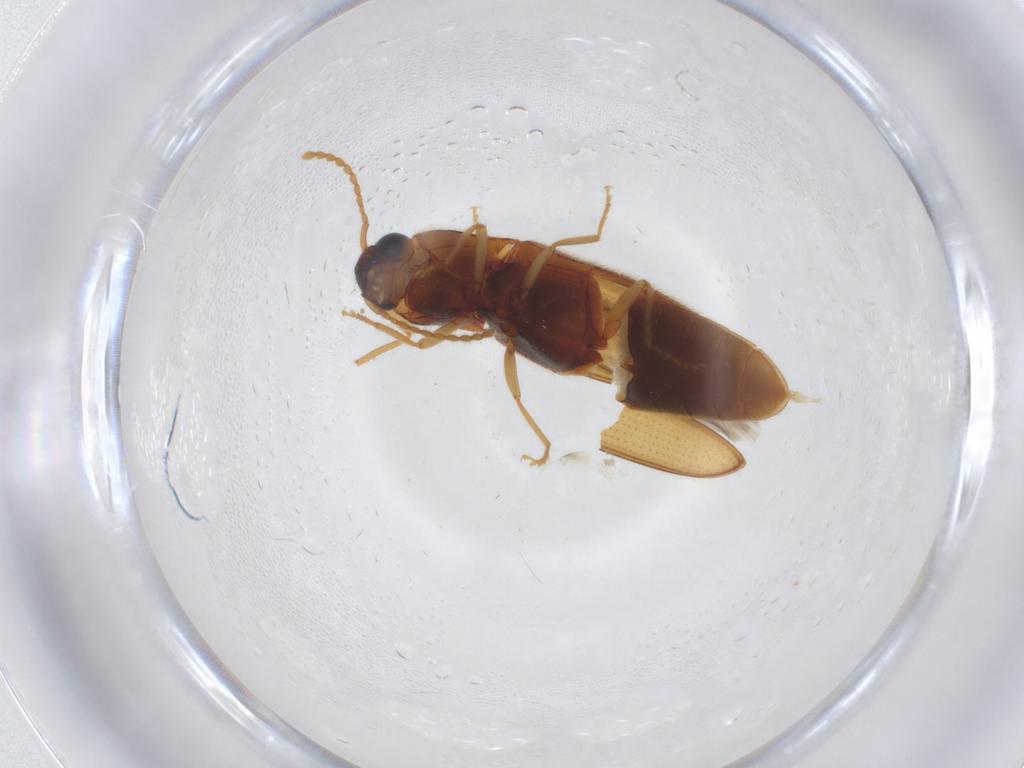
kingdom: Animalia
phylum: Arthropoda
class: Insecta
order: Coleoptera
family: Elateridae
